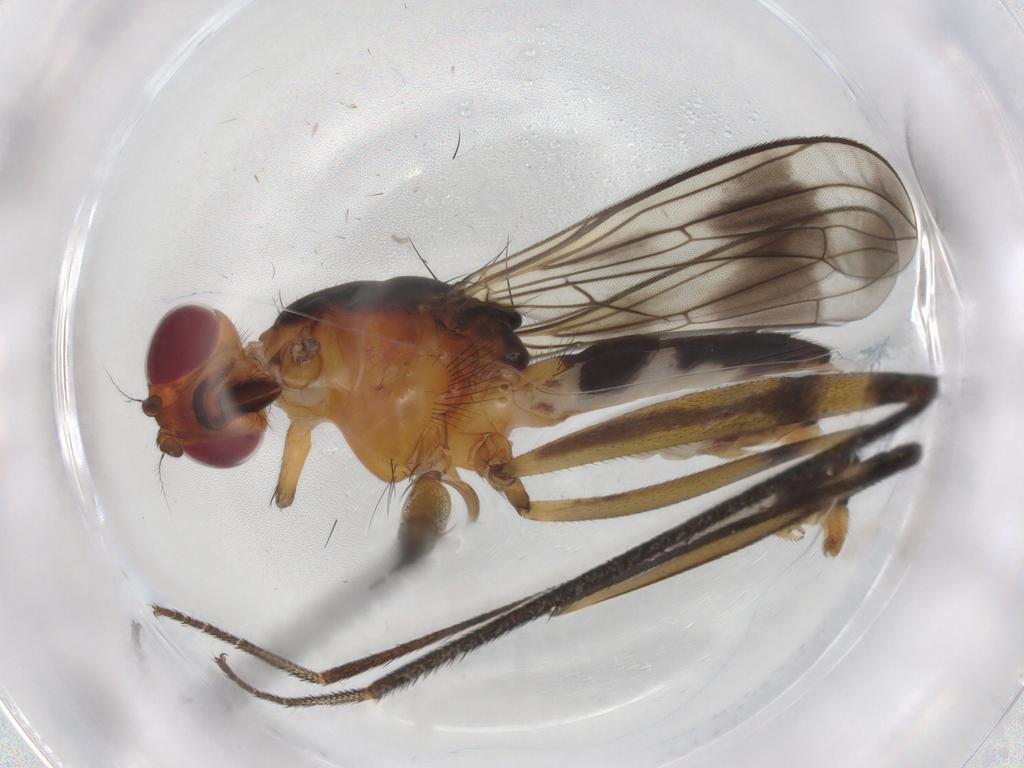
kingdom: Animalia
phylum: Arthropoda
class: Insecta
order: Diptera
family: Micropezidae
